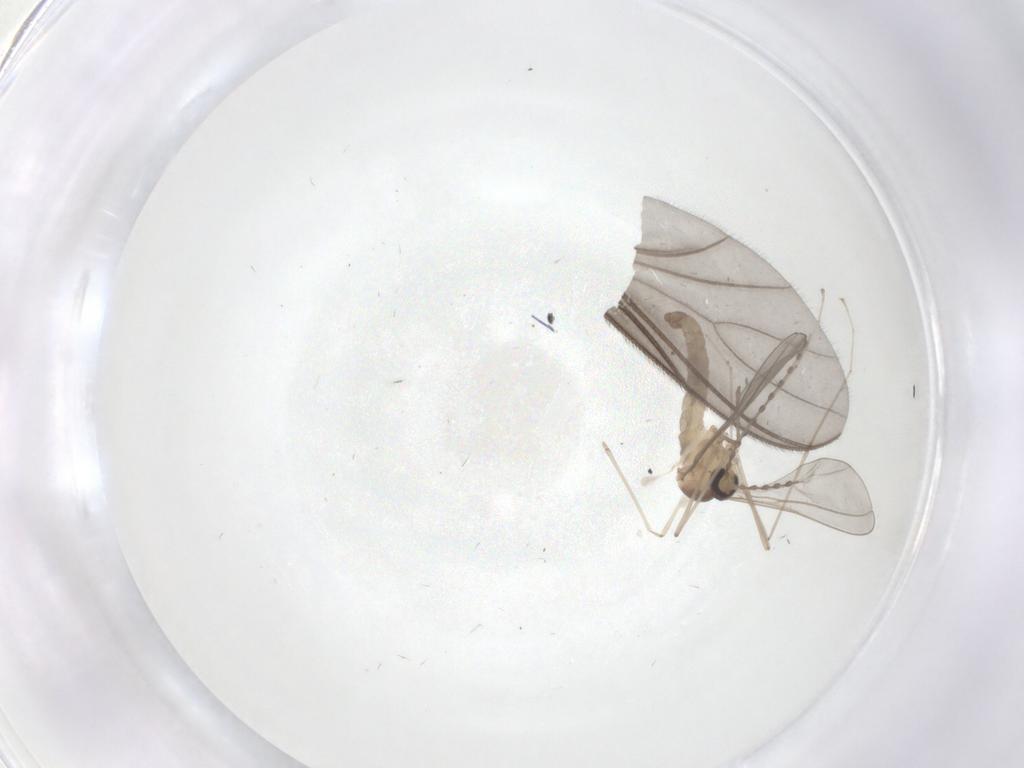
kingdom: Animalia
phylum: Arthropoda
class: Insecta
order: Diptera
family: Cecidomyiidae
